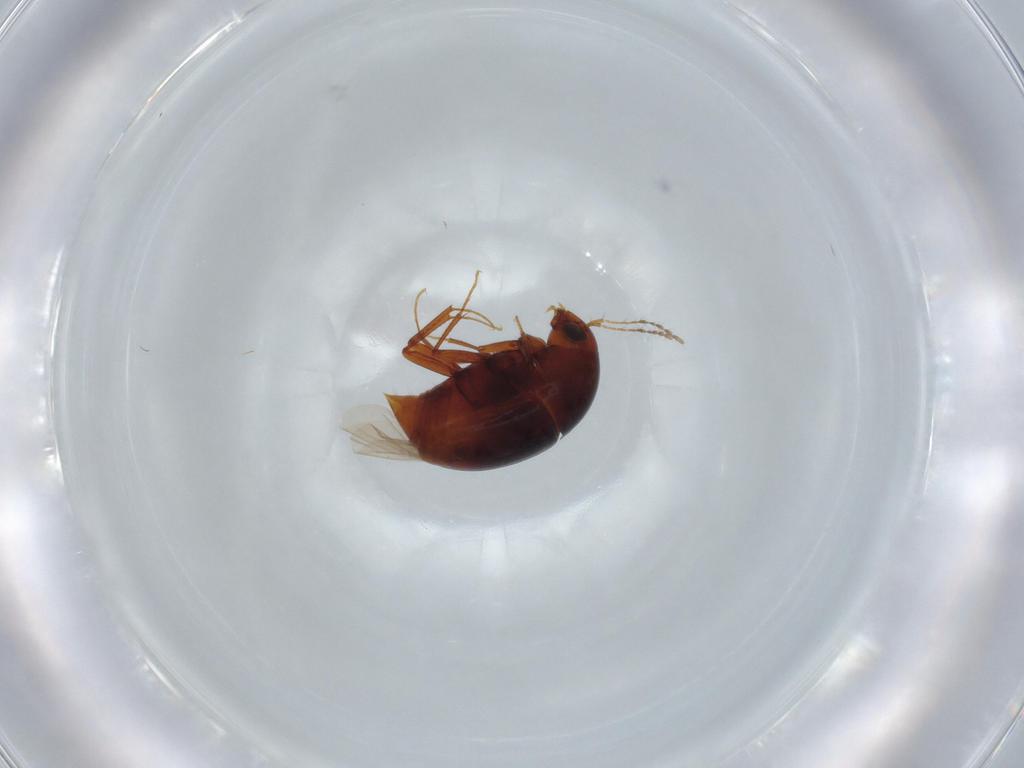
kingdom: Animalia
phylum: Arthropoda
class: Insecta
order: Coleoptera
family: Staphylinidae
